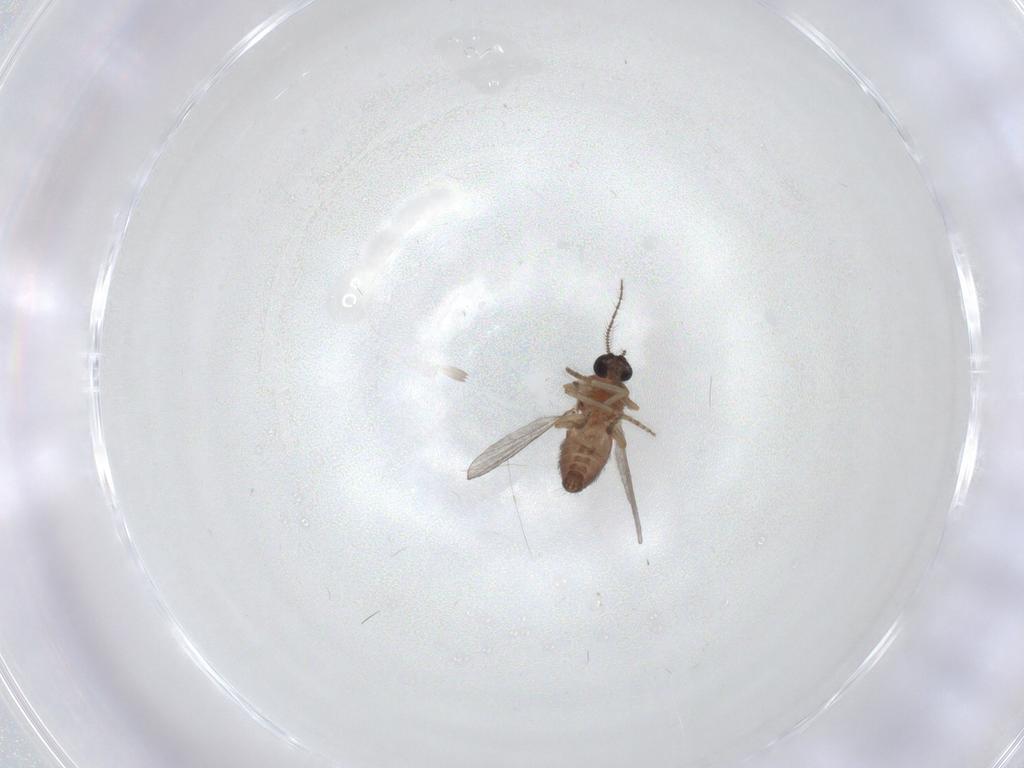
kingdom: Animalia
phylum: Arthropoda
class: Insecta
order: Diptera
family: Ceratopogonidae
